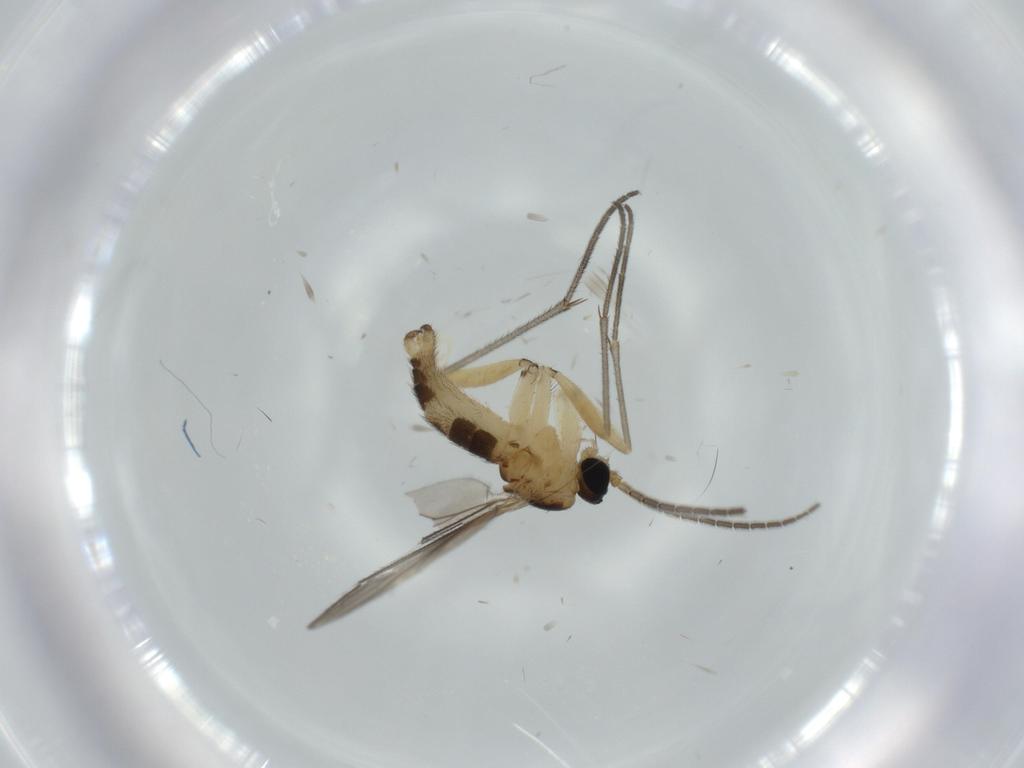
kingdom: Animalia
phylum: Arthropoda
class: Insecta
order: Diptera
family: Sciaridae
